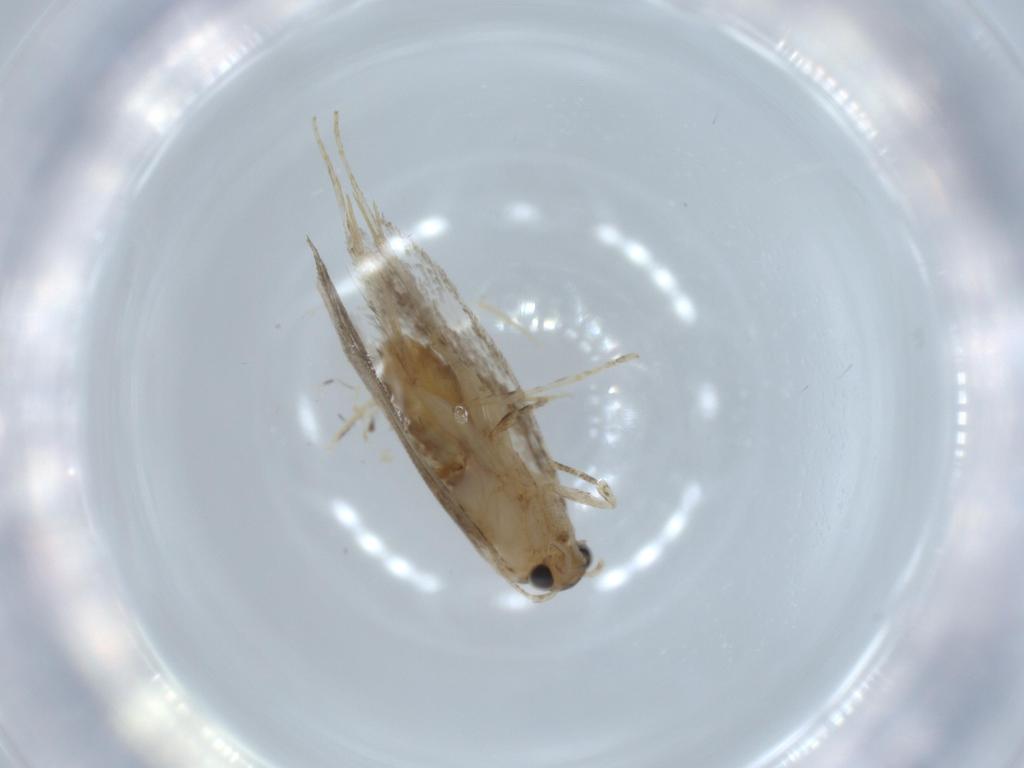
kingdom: Animalia
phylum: Arthropoda
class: Insecta
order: Lepidoptera
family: Tineidae
